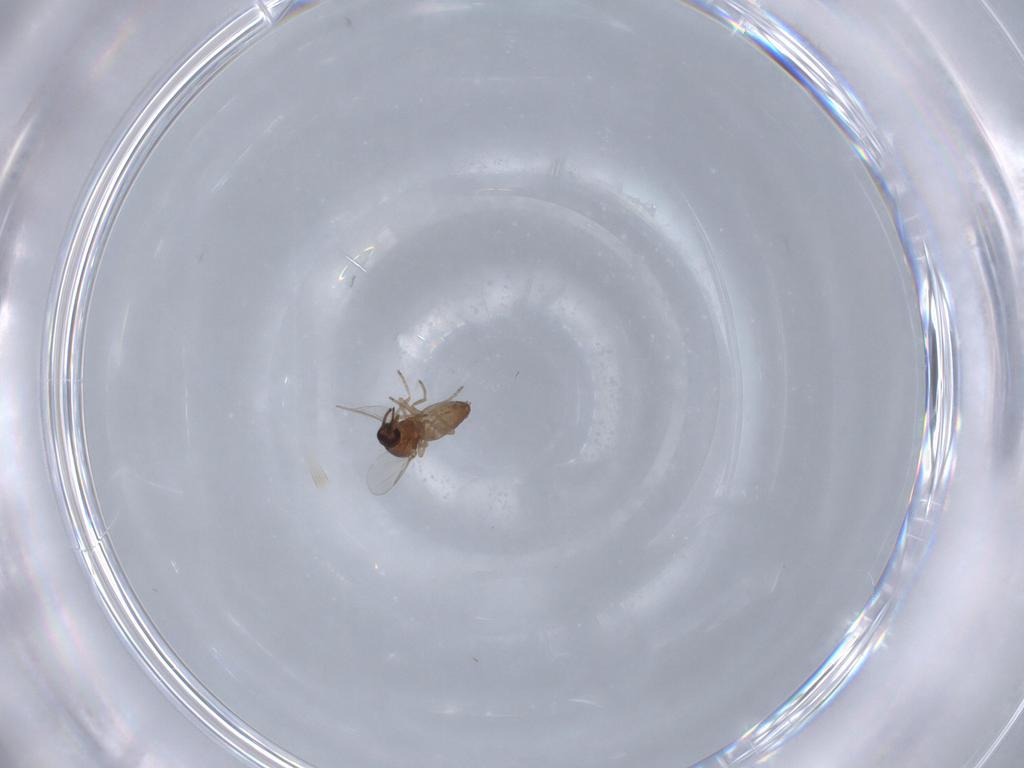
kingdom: Animalia
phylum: Arthropoda
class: Insecta
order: Diptera
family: Ceratopogonidae
